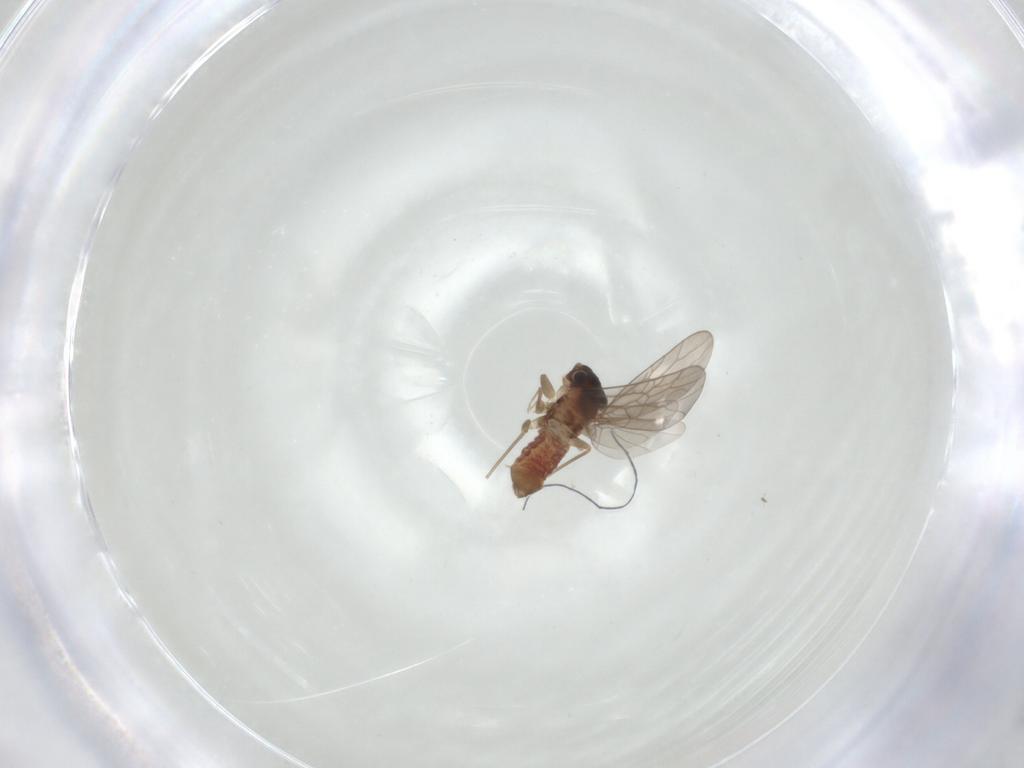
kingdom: Animalia
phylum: Arthropoda
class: Insecta
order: Psocodea
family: Lepidopsocidae
